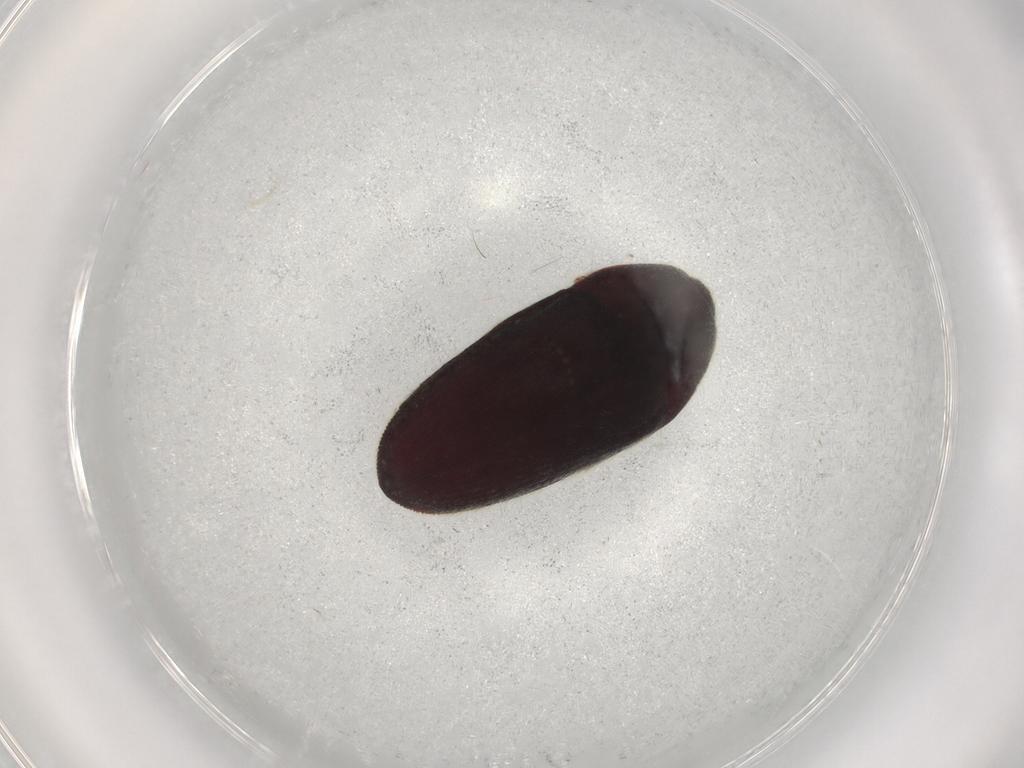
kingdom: Animalia
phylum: Arthropoda
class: Insecta
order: Coleoptera
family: Throscidae
